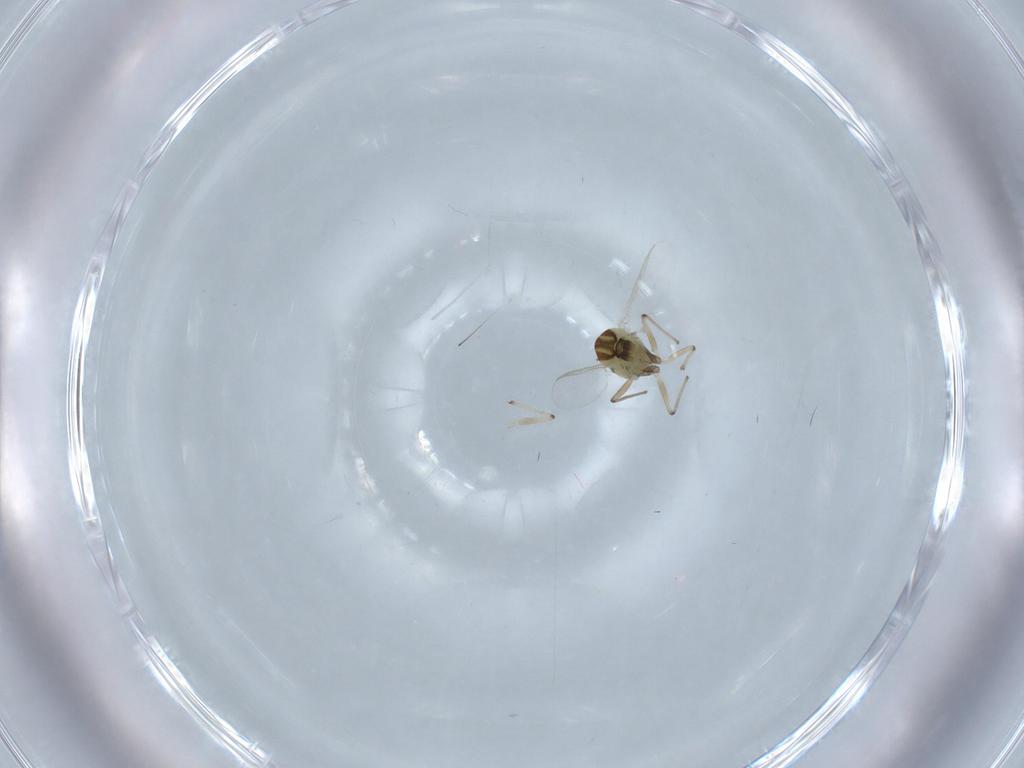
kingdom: Animalia
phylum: Arthropoda
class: Insecta
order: Diptera
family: Chironomidae
